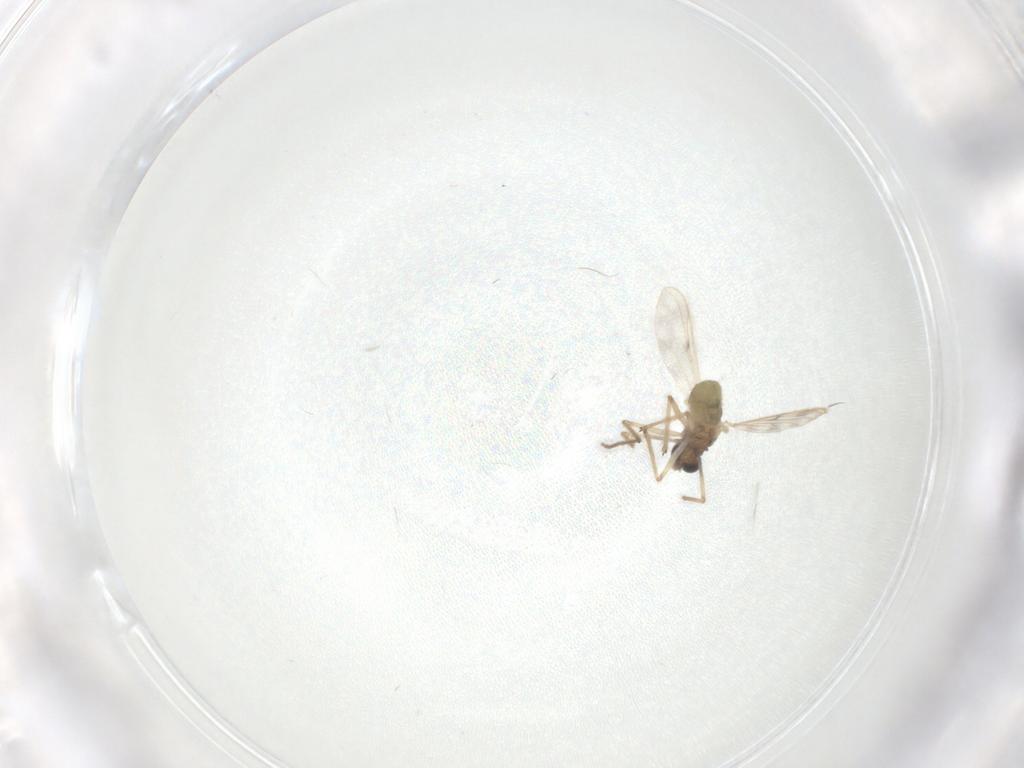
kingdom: Animalia
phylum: Arthropoda
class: Insecta
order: Diptera
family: Chironomidae
